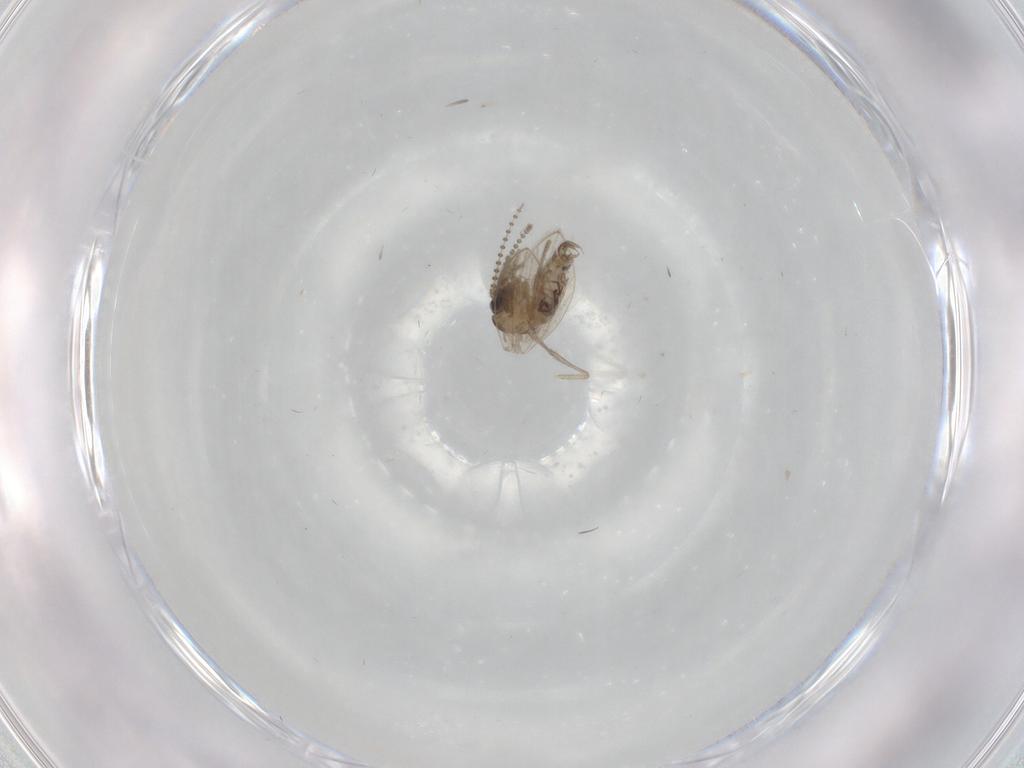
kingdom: Animalia
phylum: Arthropoda
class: Insecta
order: Diptera
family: Psychodidae
